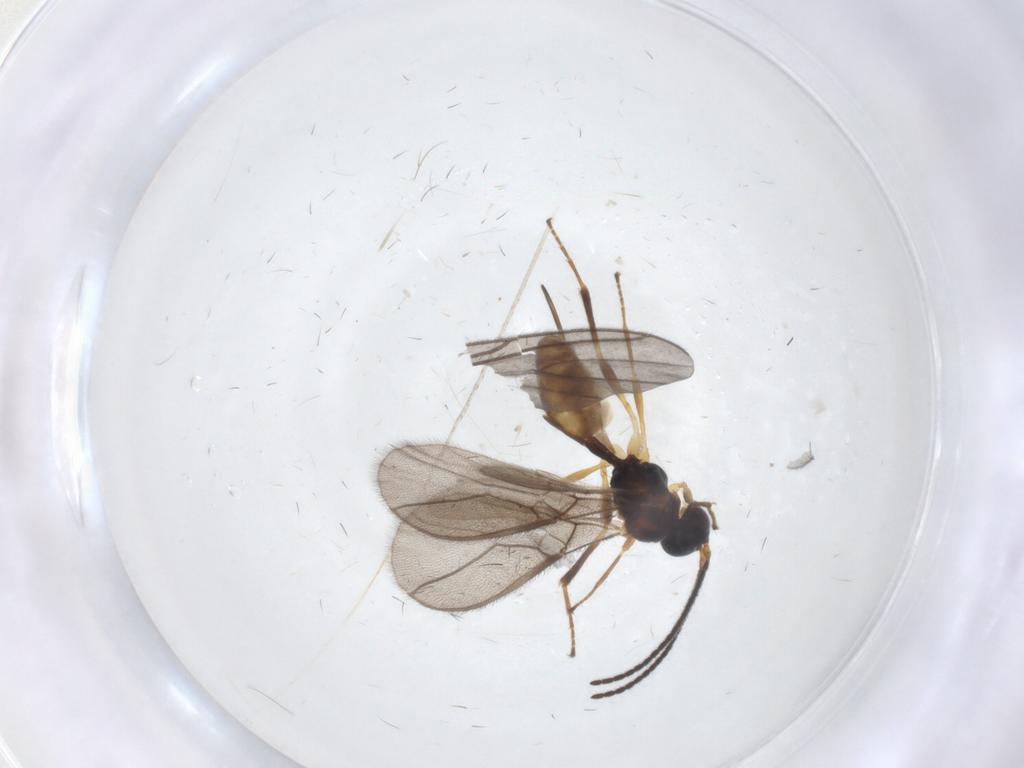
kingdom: Animalia
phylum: Arthropoda
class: Insecta
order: Hymenoptera
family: Braconidae
